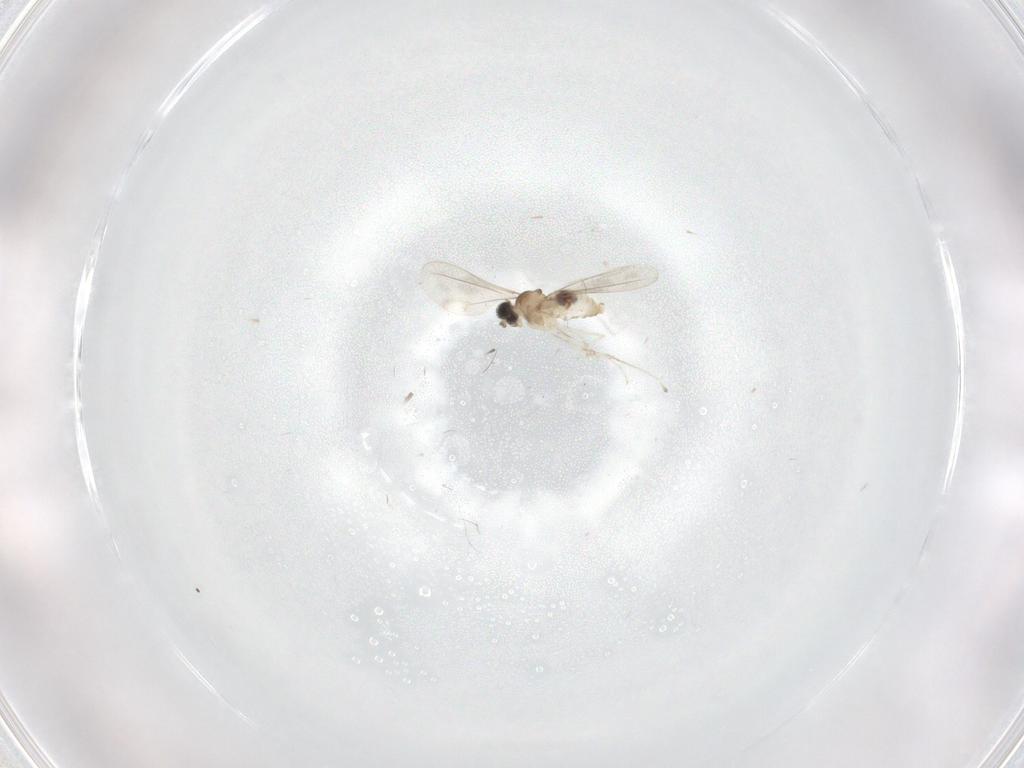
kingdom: Animalia
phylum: Arthropoda
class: Insecta
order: Diptera
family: Cecidomyiidae
